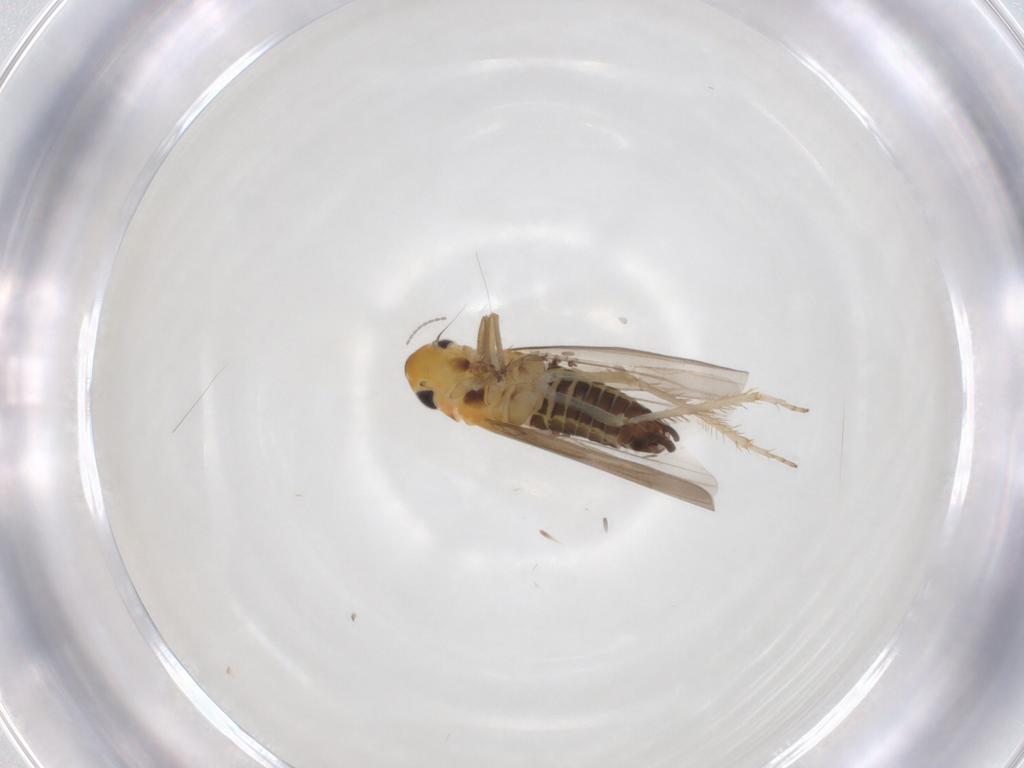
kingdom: Animalia
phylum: Arthropoda
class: Insecta
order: Hemiptera
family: Cicadellidae
